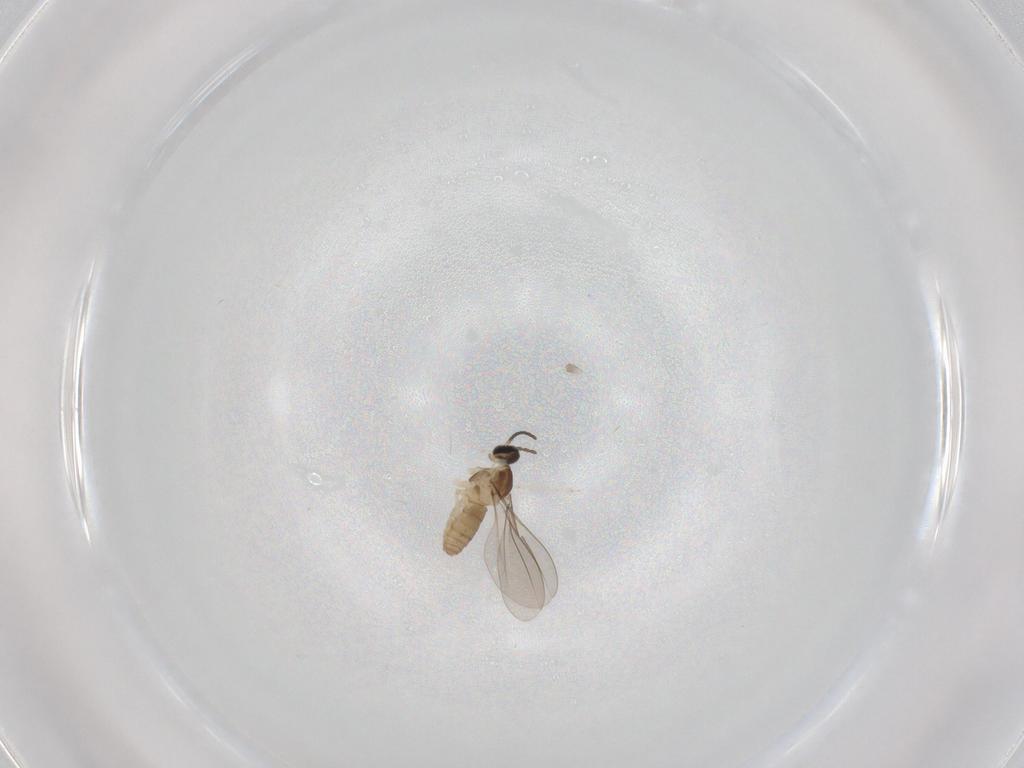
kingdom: Animalia
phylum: Arthropoda
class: Insecta
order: Diptera
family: Cecidomyiidae
